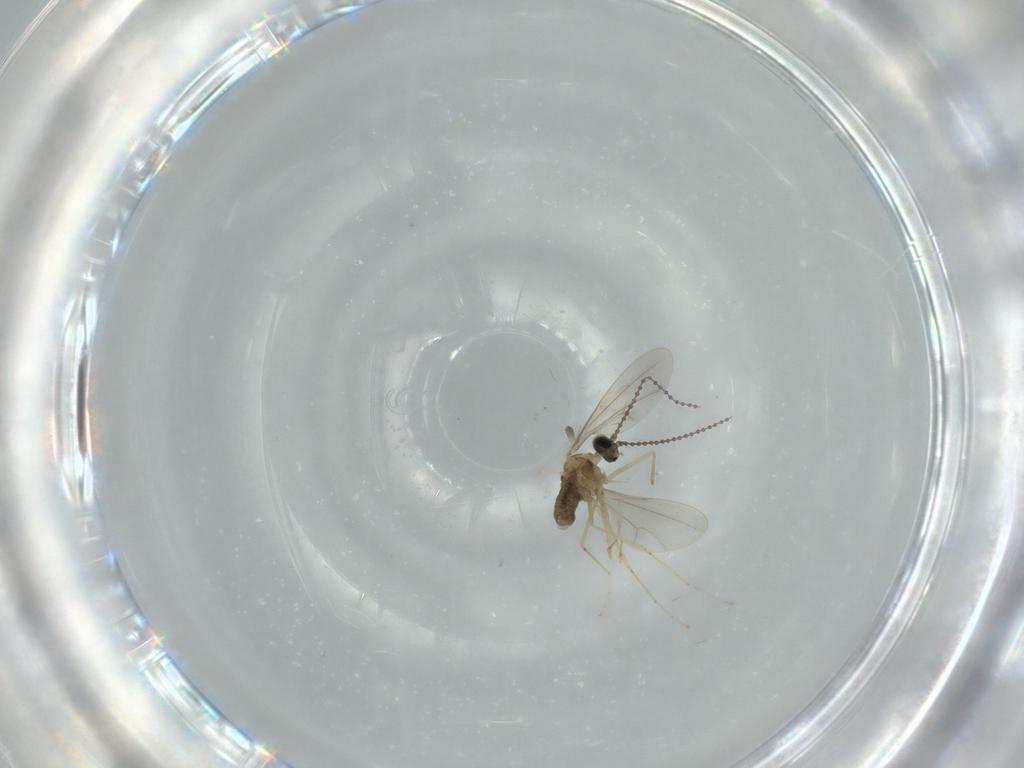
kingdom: Animalia
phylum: Arthropoda
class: Insecta
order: Diptera
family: Cecidomyiidae
